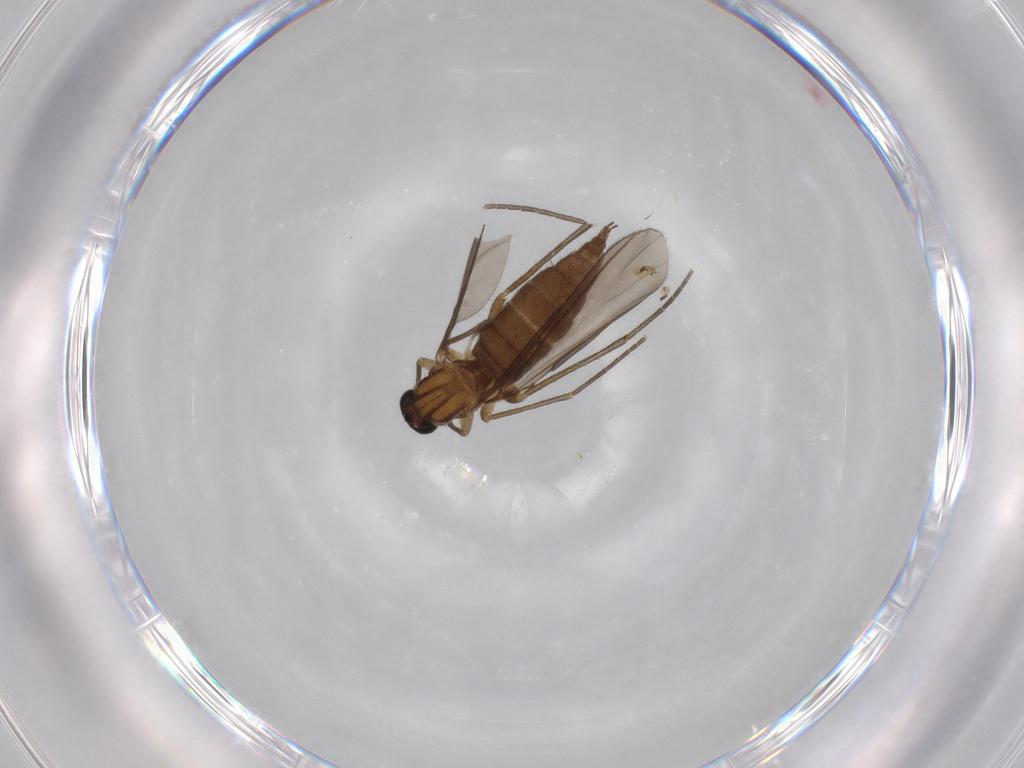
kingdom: Animalia
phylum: Arthropoda
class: Insecta
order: Diptera
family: Sciaridae
